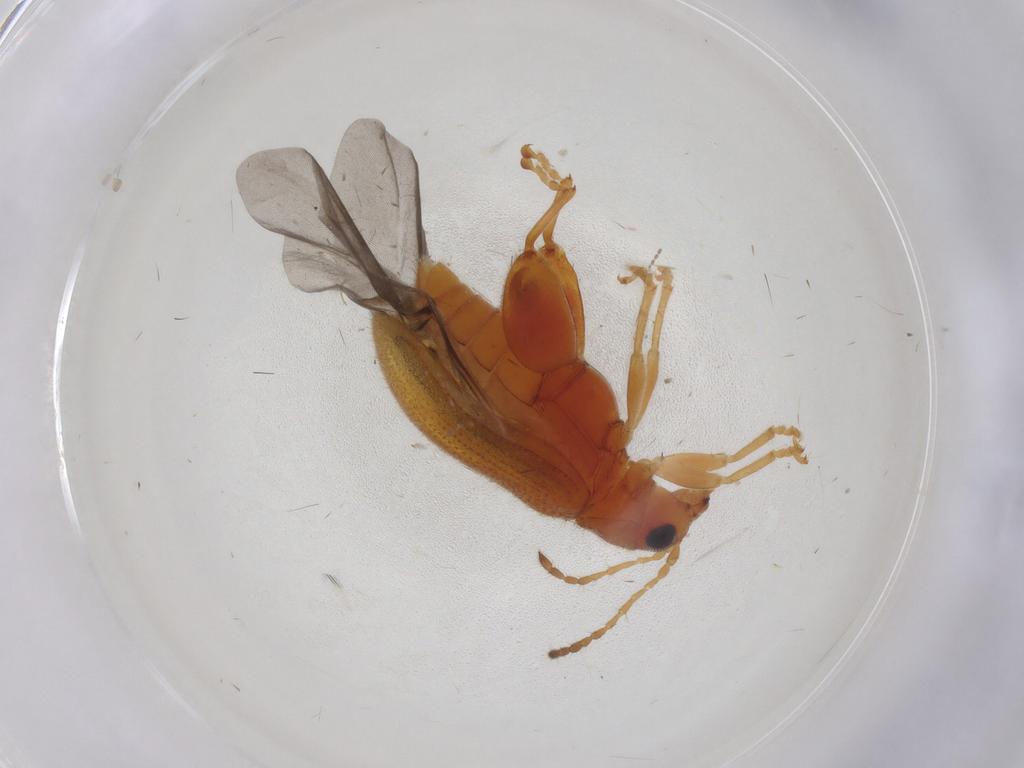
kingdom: Animalia
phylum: Arthropoda
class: Insecta
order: Coleoptera
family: Chrysomelidae
